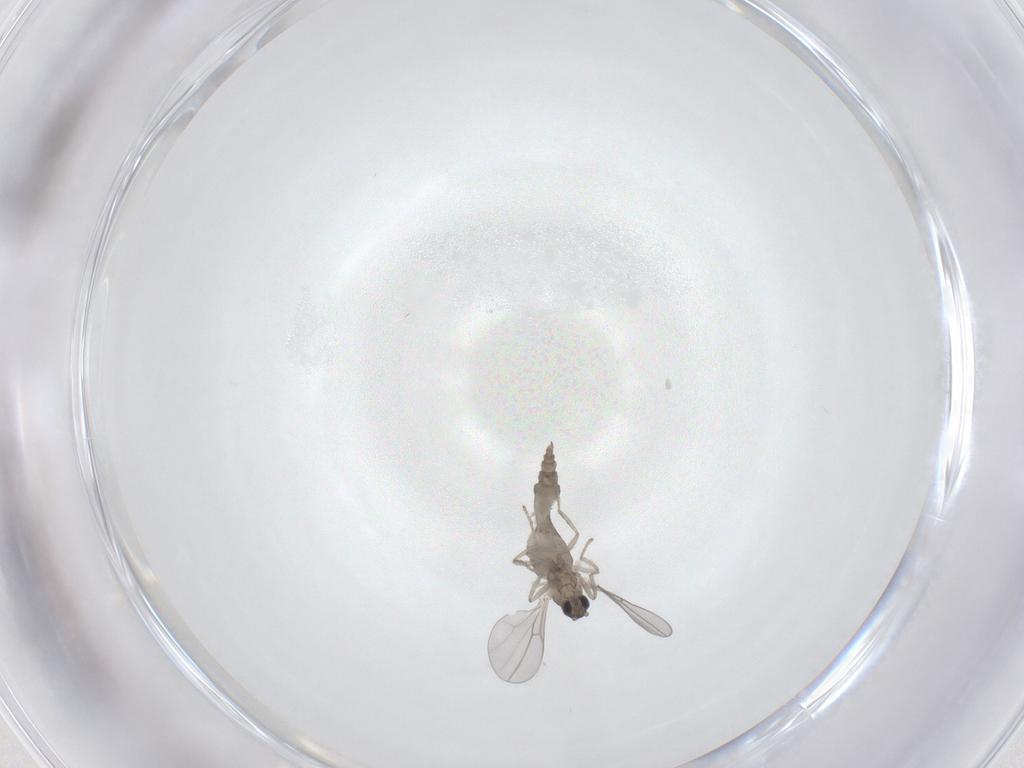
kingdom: Animalia
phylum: Arthropoda
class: Insecta
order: Diptera
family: Cecidomyiidae
